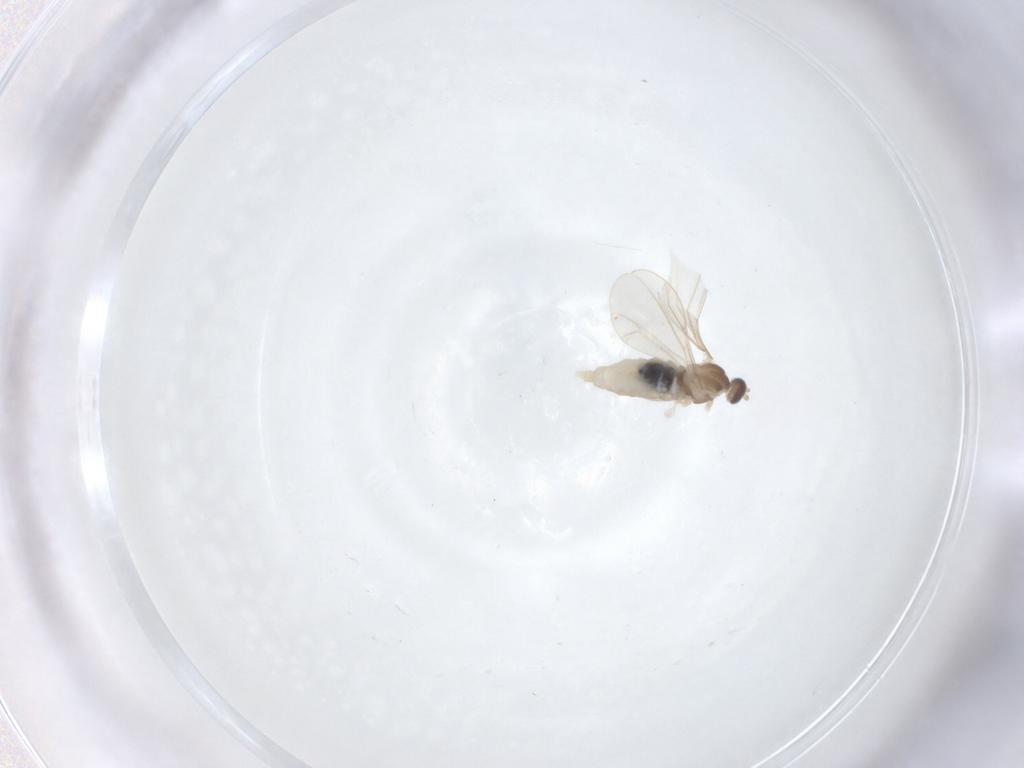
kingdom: Animalia
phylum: Arthropoda
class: Insecta
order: Diptera
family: Cecidomyiidae
